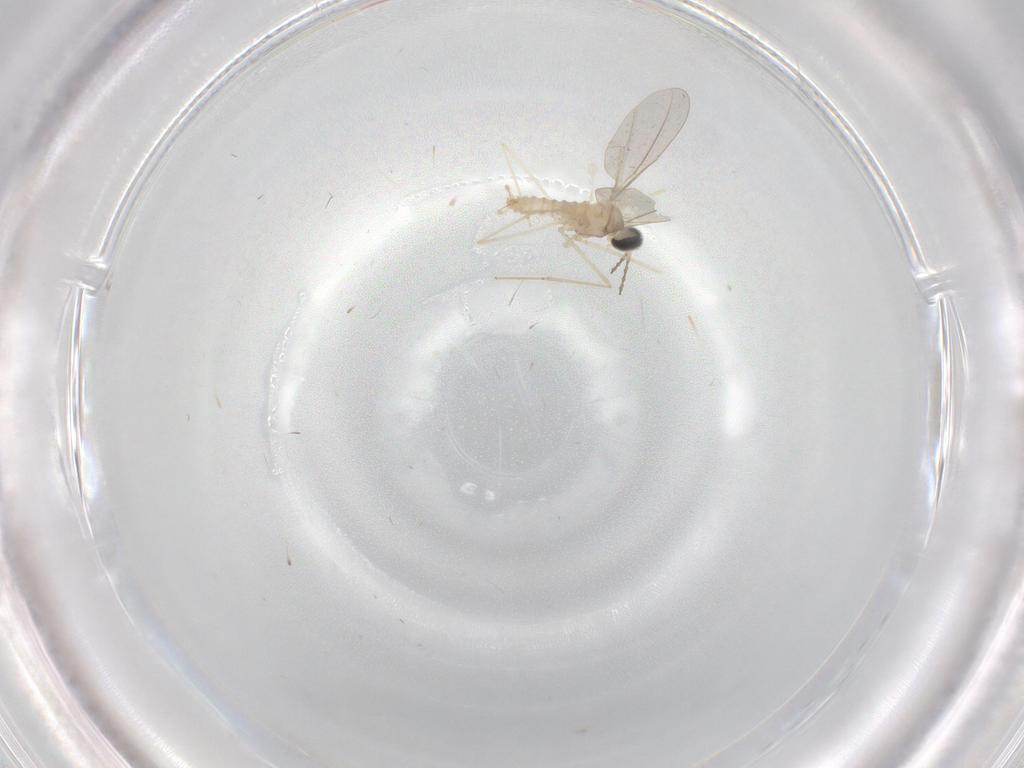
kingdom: Animalia
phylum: Arthropoda
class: Insecta
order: Diptera
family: Cecidomyiidae
